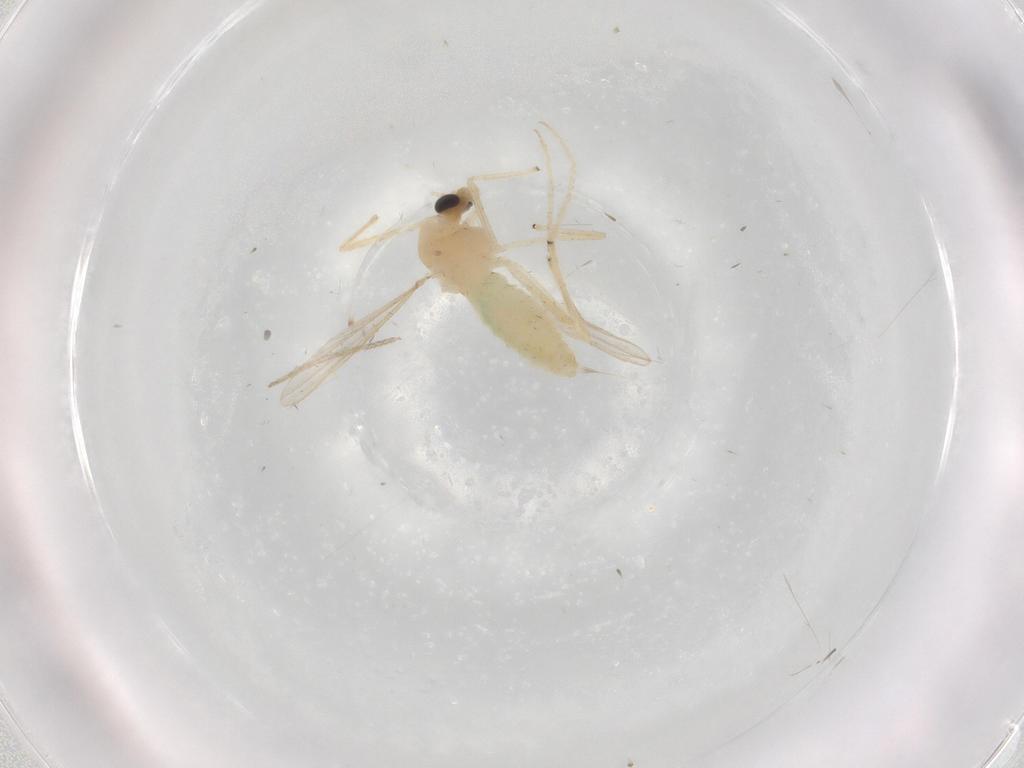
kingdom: Animalia
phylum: Arthropoda
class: Insecta
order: Diptera
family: Chironomidae
